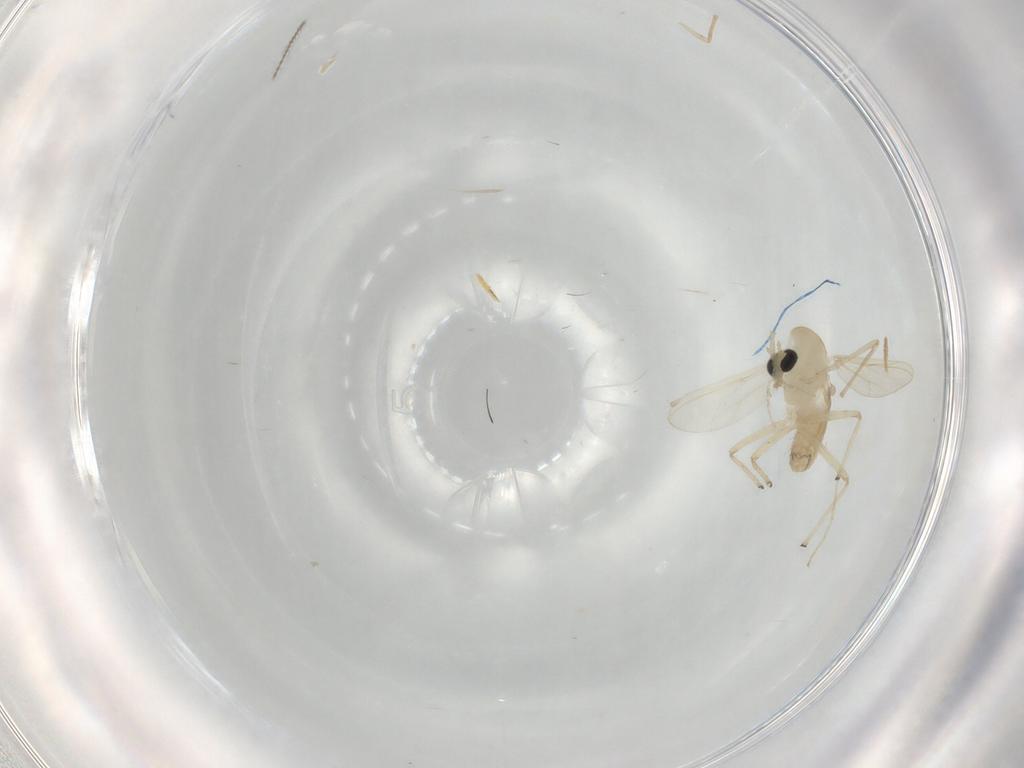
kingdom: Animalia
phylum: Arthropoda
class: Insecta
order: Diptera
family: Chironomidae
